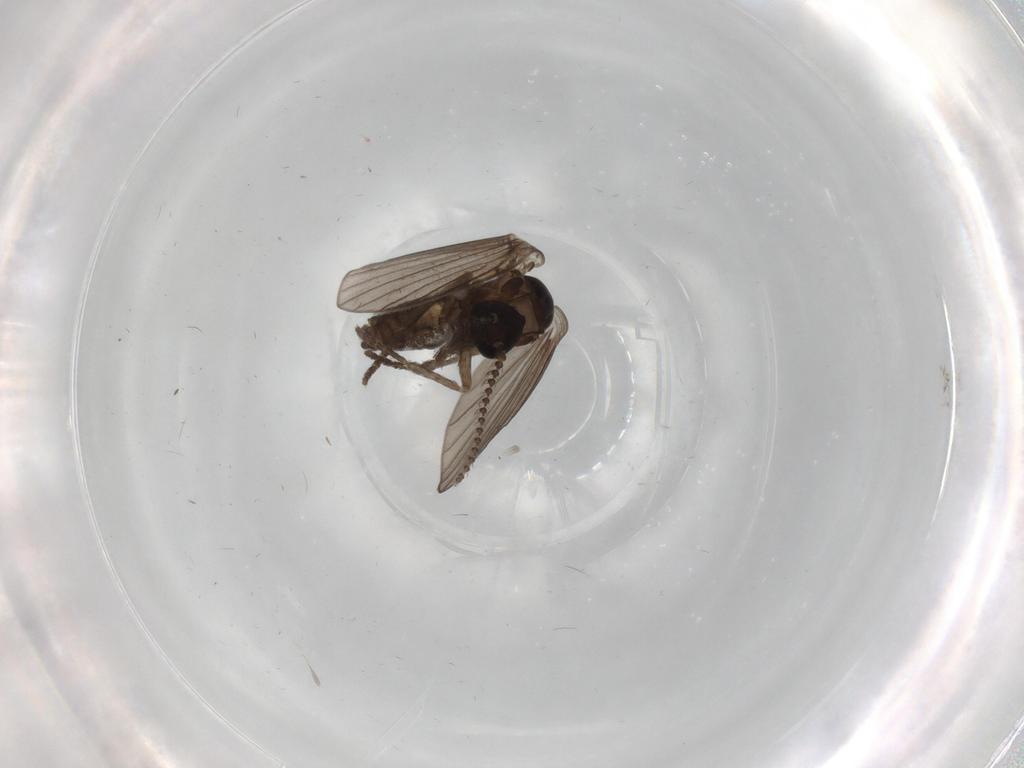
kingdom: Animalia
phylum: Arthropoda
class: Insecta
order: Diptera
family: Psychodidae
